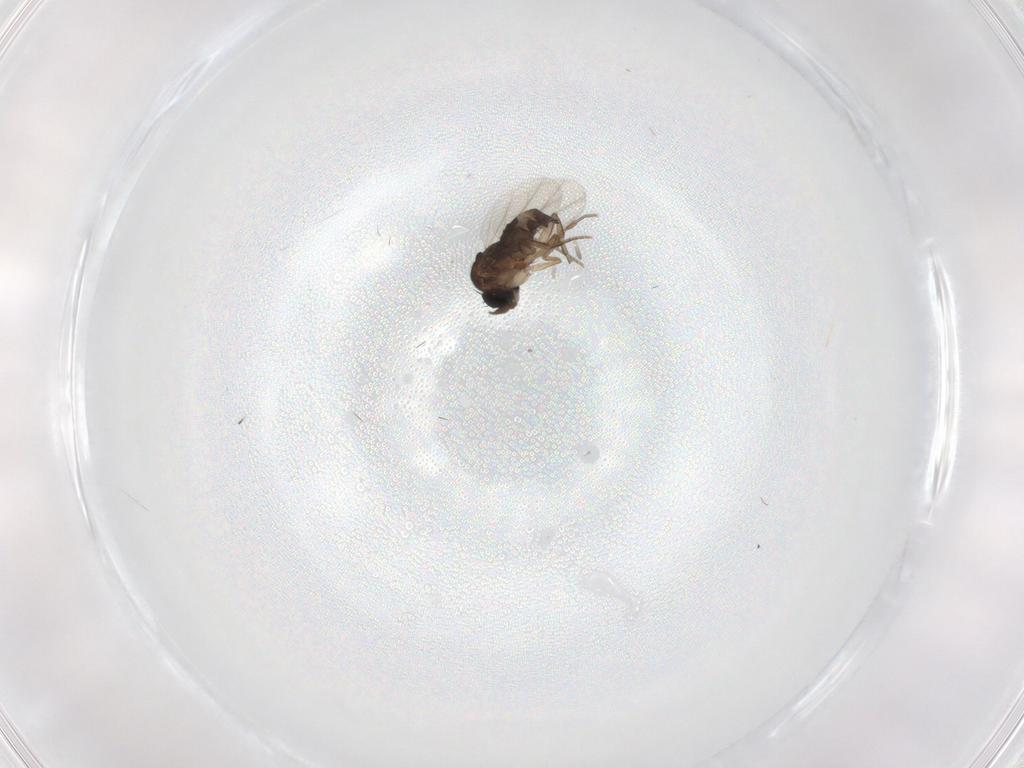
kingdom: Animalia
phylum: Arthropoda
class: Insecta
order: Diptera
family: Phoridae
